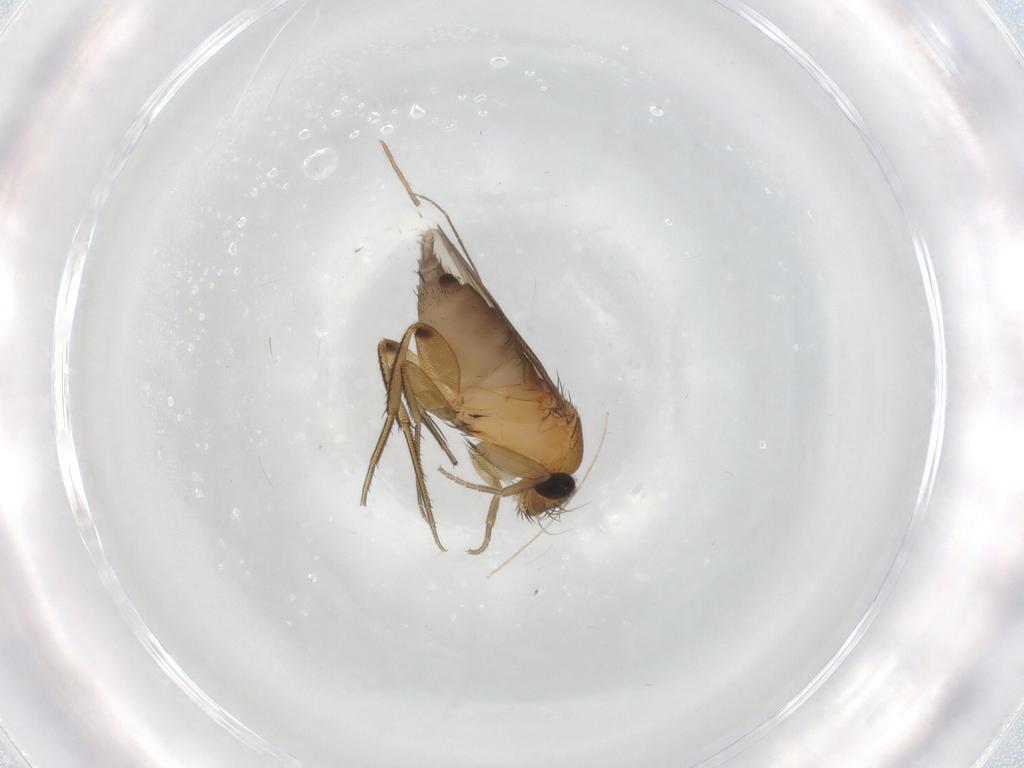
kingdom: Animalia
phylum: Arthropoda
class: Insecta
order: Diptera
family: Phoridae
